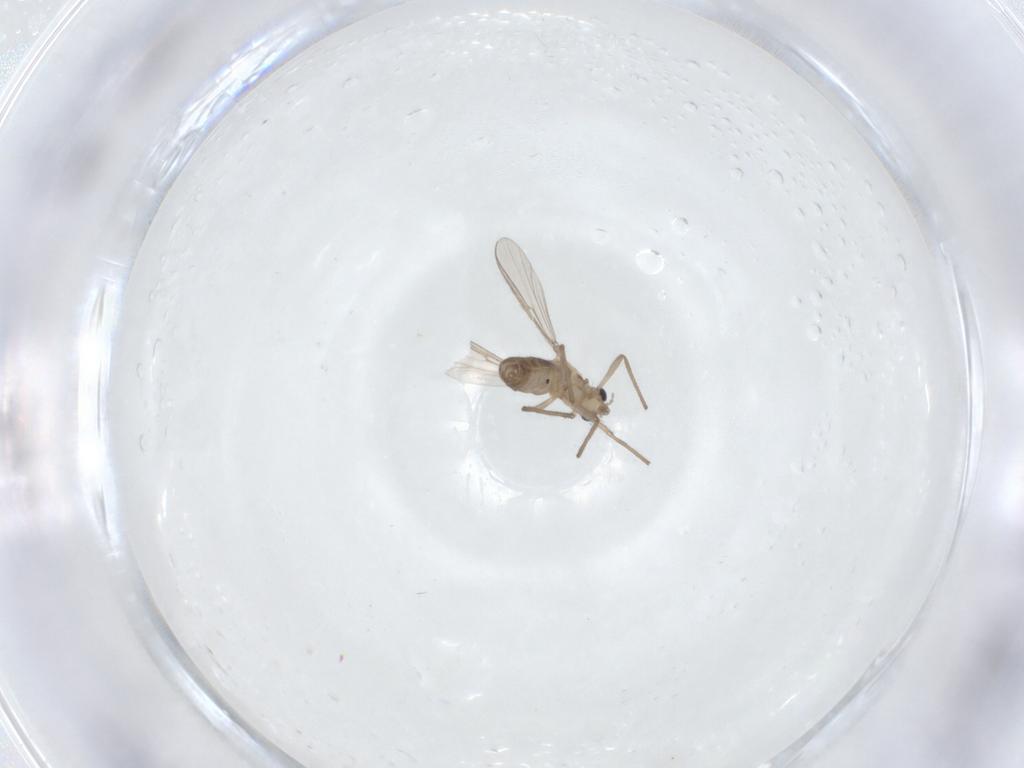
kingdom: Animalia
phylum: Arthropoda
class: Insecta
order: Diptera
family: Chironomidae
